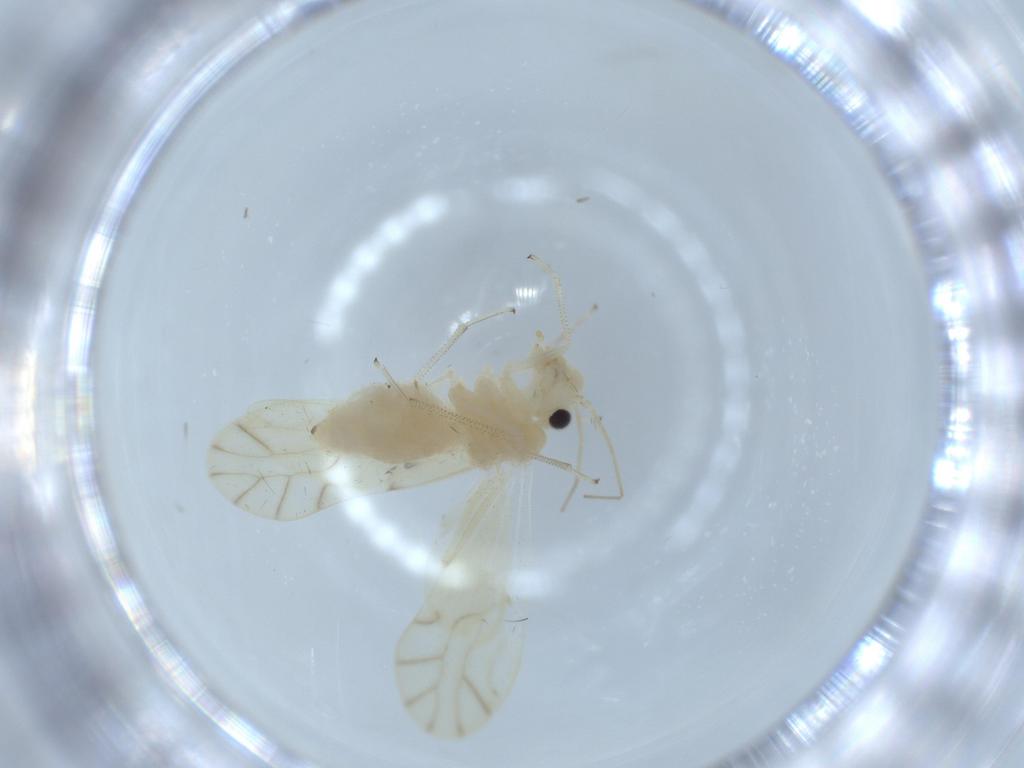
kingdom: Animalia
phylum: Arthropoda
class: Insecta
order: Psocodea
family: Caeciliusidae
